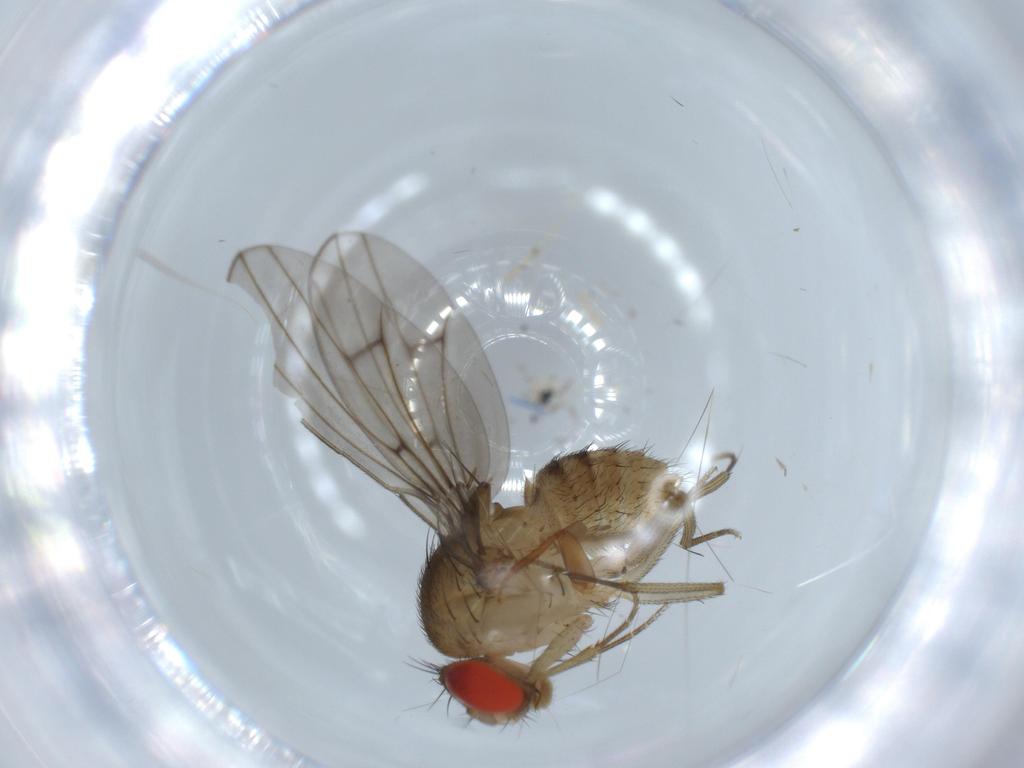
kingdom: Animalia
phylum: Arthropoda
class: Insecta
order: Diptera
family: Drosophilidae
